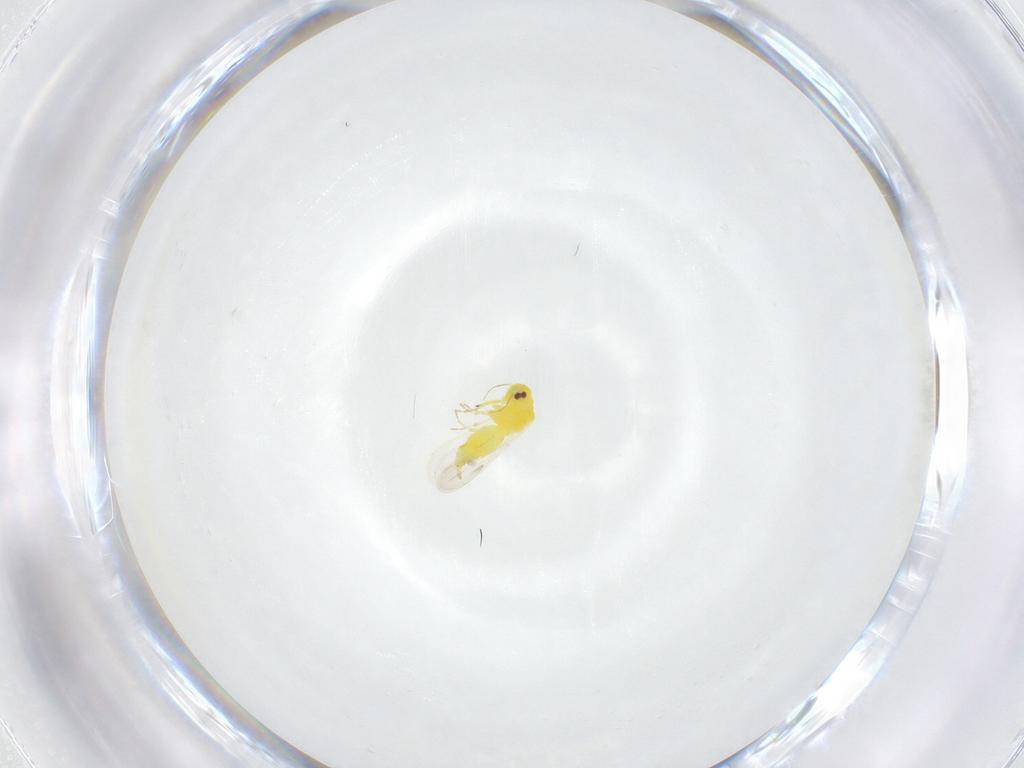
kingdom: Animalia
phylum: Arthropoda
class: Insecta
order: Hemiptera
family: Aleyrodidae
